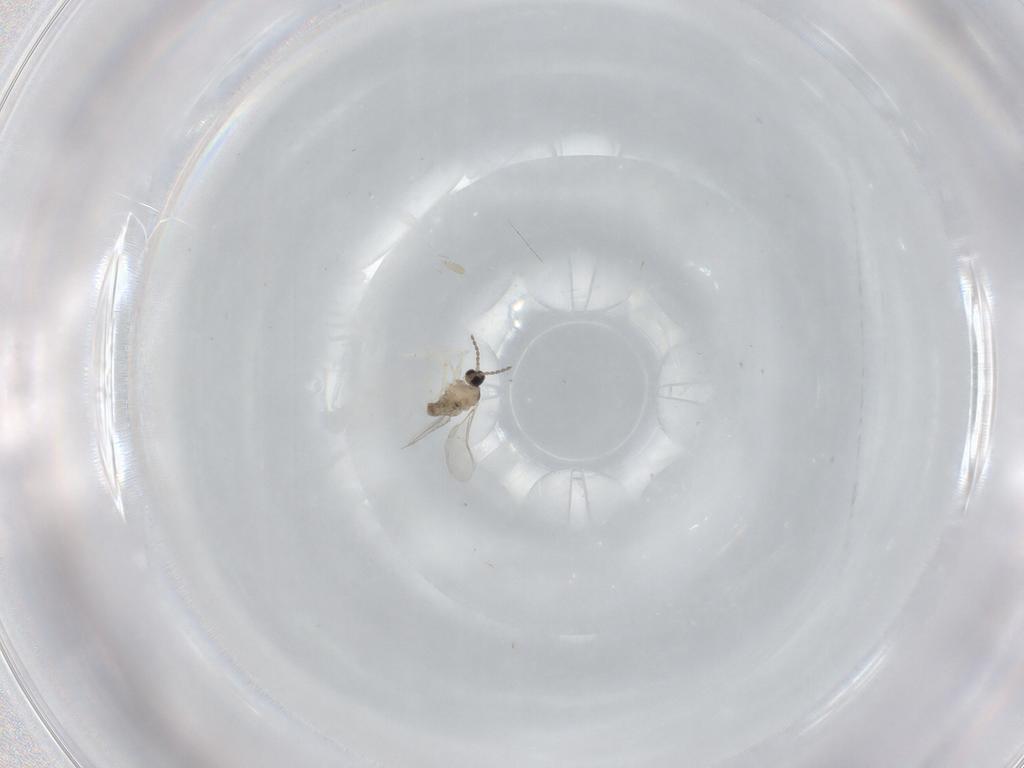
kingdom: Animalia
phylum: Arthropoda
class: Insecta
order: Diptera
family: Cecidomyiidae
